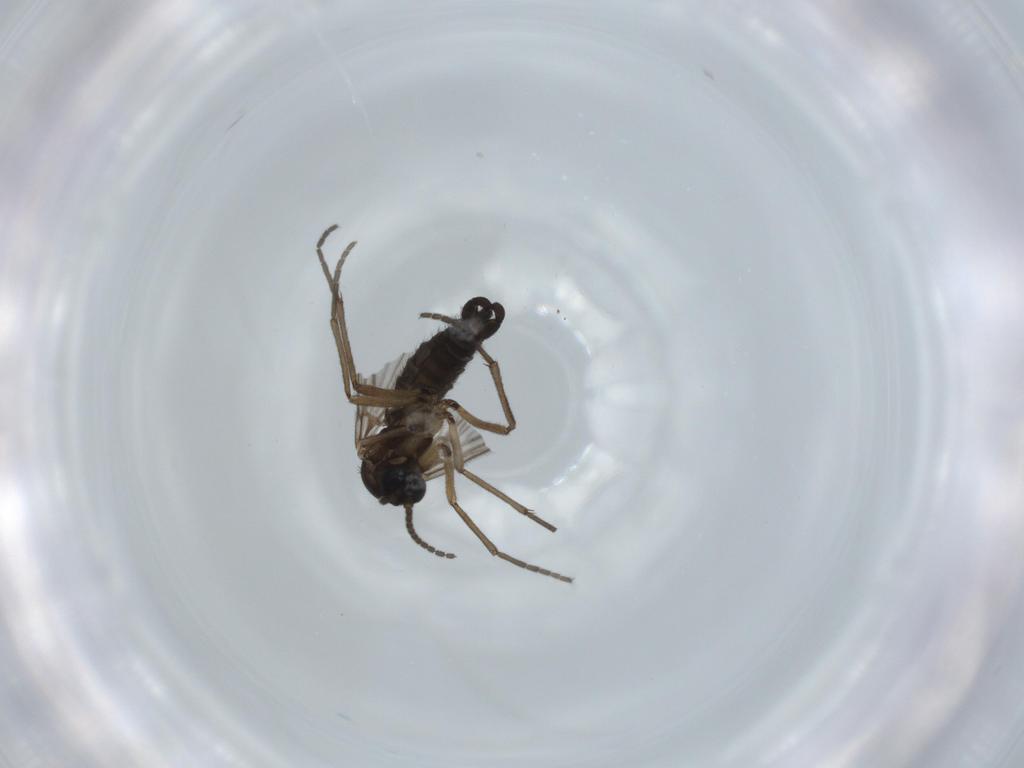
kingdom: Animalia
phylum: Arthropoda
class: Insecta
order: Diptera
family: Sciaridae
